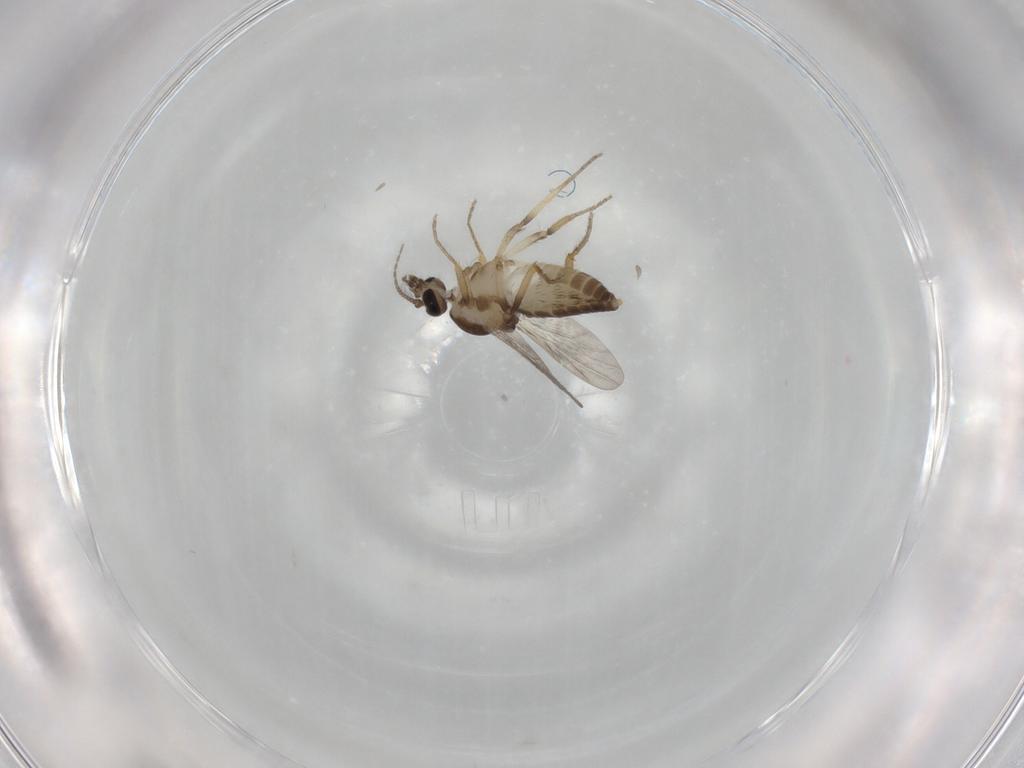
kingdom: Animalia
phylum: Arthropoda
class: Insecta
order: Diptera
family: Ceratopogonidae
